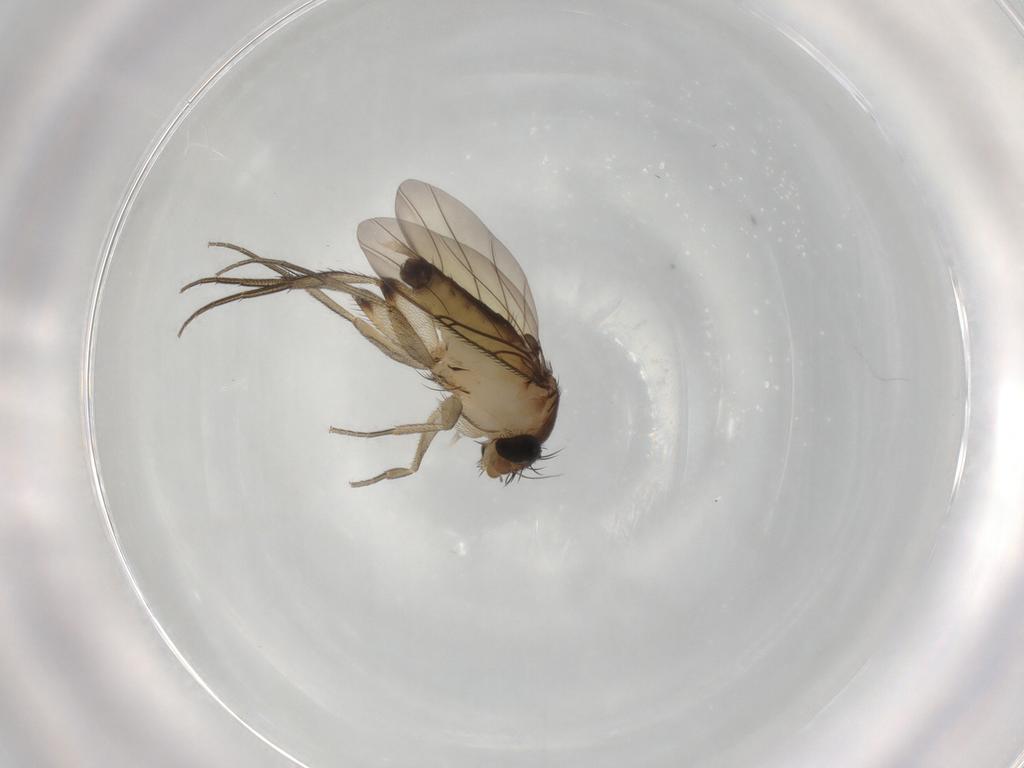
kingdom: Animalia
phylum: Arthropoda
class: Insecta
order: Diptera
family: Phoridae
